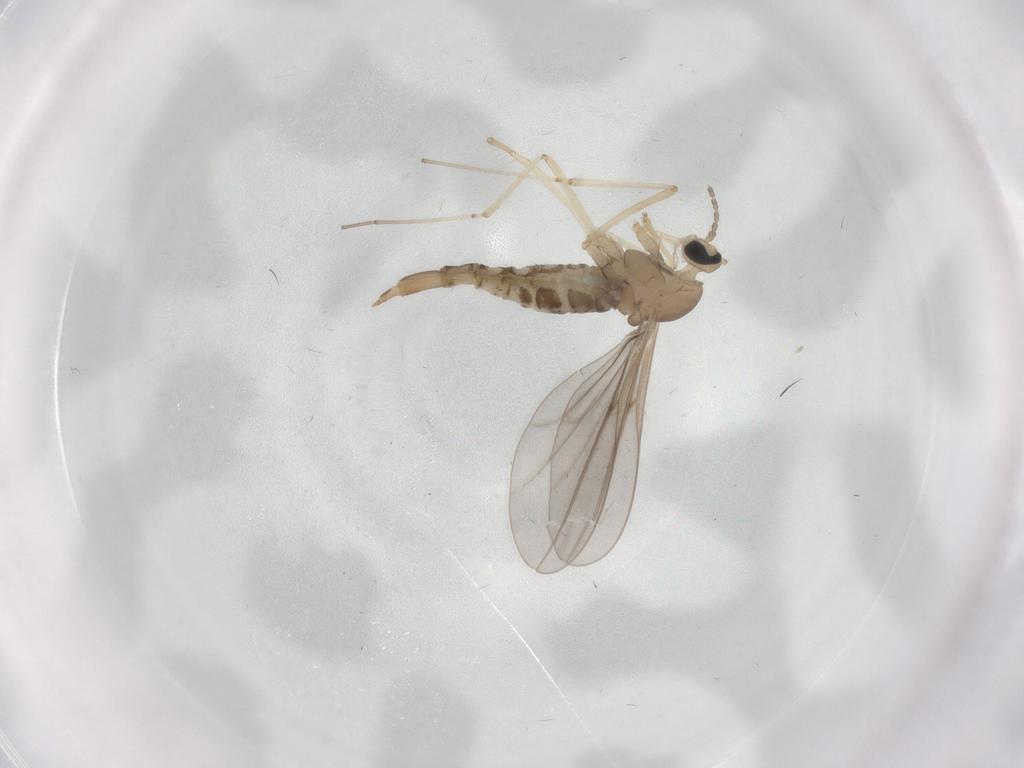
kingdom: Animalia
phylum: Arthropoda
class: Insecta
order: Diptera
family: Cecidomyiidae
